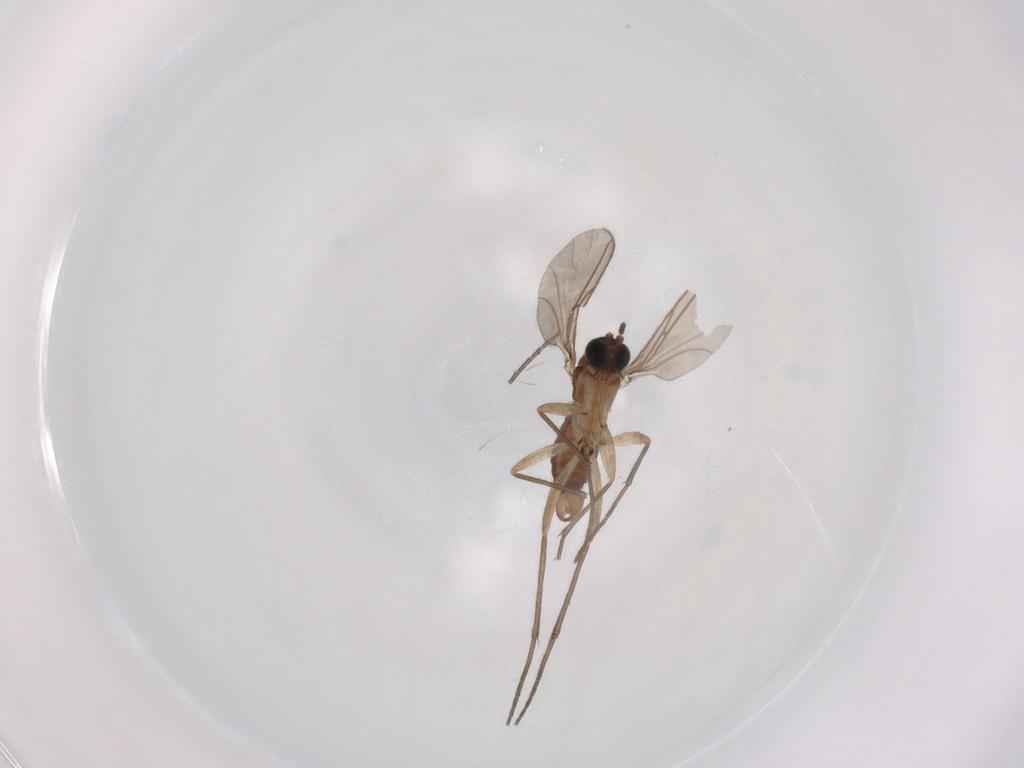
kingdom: Animalia
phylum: Arthropoda
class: Insecta
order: Diptera
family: Sciaridae
